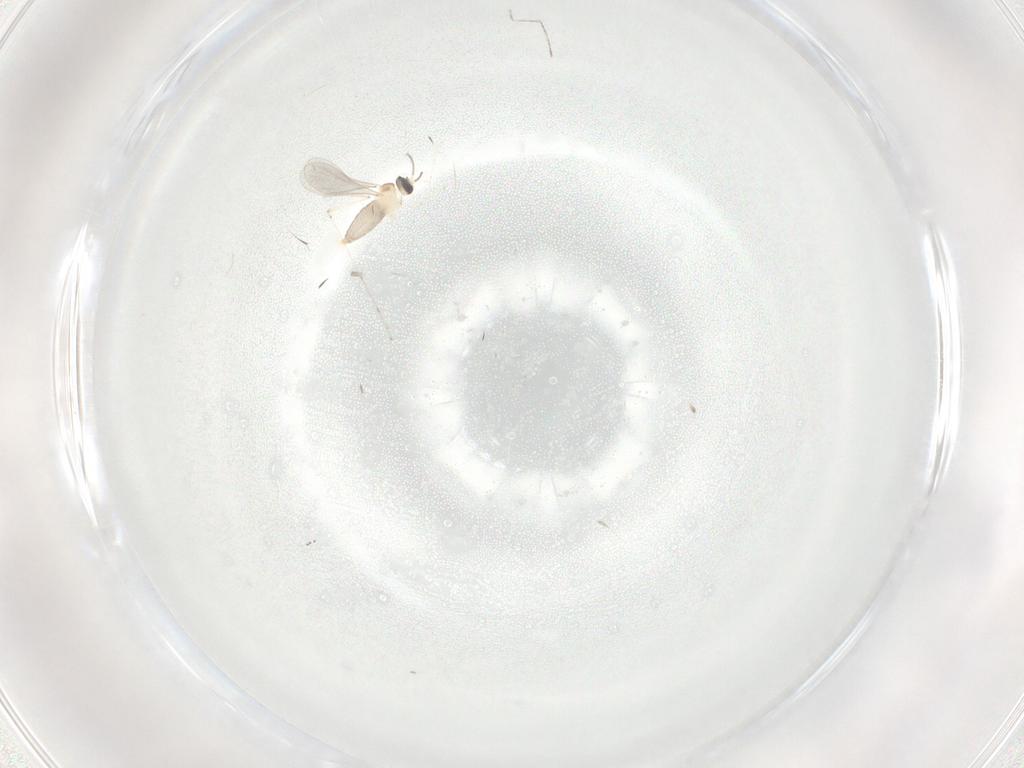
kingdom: Animalia
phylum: Arthropoda
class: Insecta
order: Diptera
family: Cecidomyiidae
